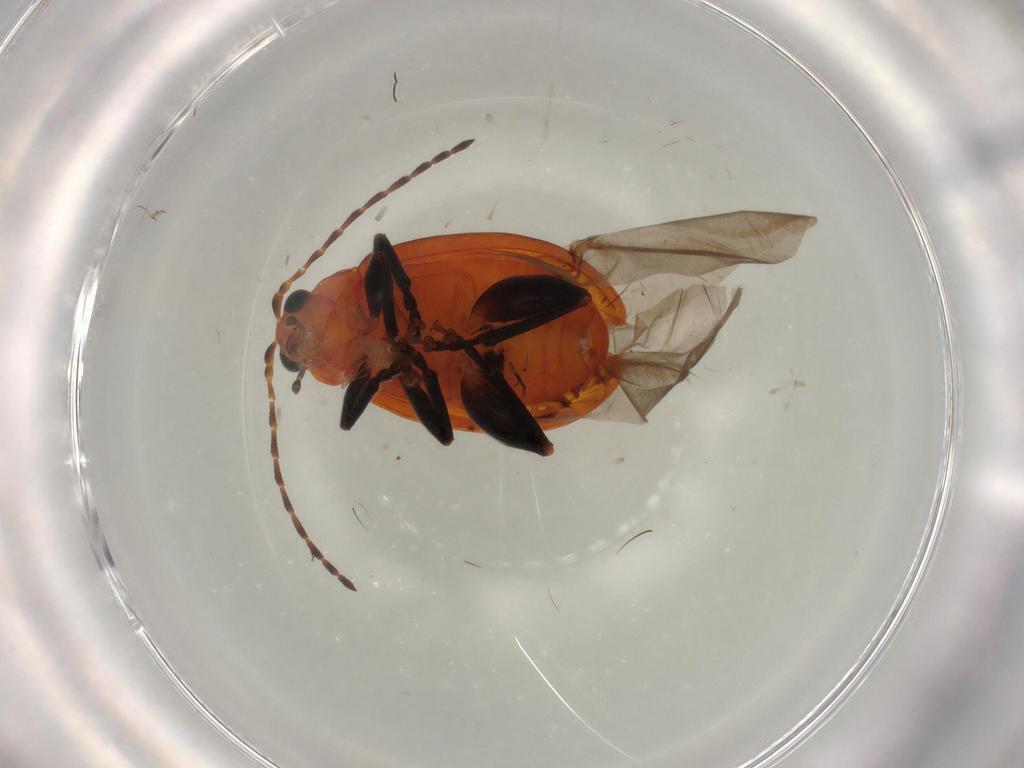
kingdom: Animalia
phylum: Arthropoda
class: Insecta
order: Coleoptera
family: Chrysomelidae
